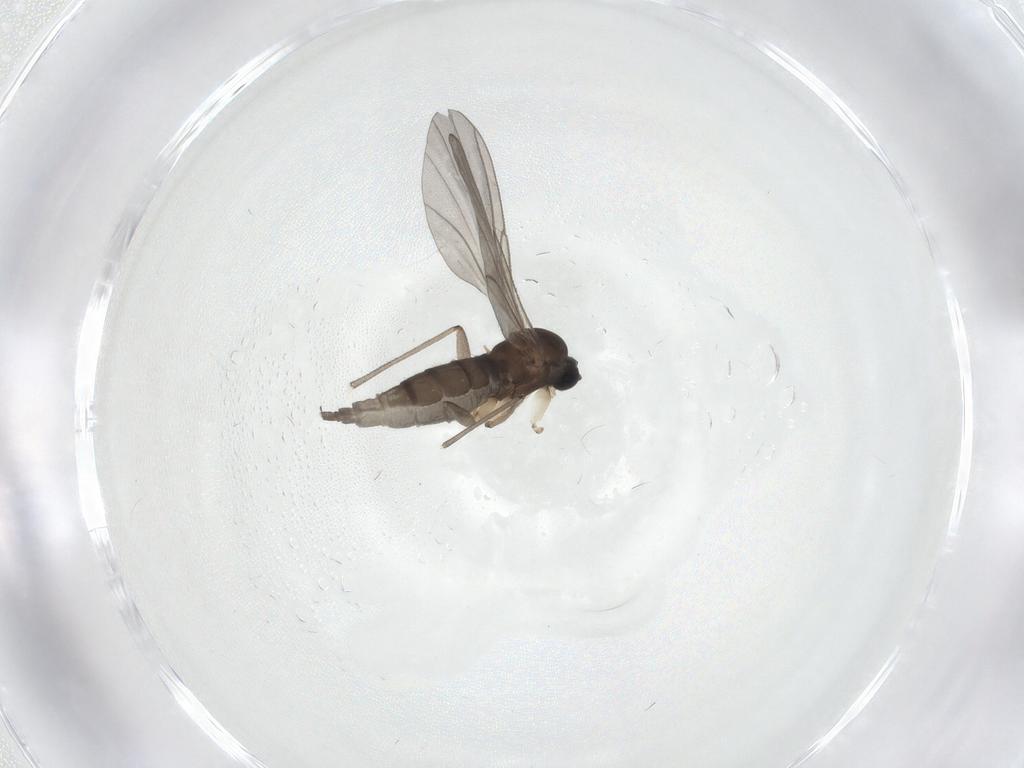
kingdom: Animalia
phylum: Arthropoda
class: Insecta
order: Diptera
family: Sciaridae
